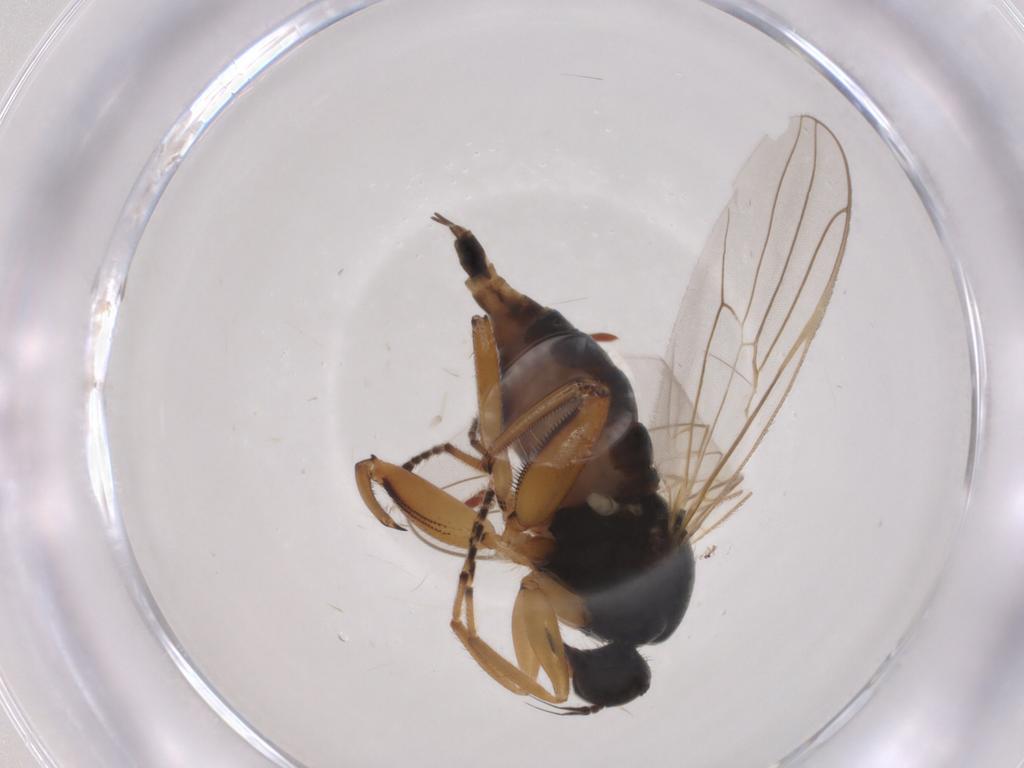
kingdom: Animalia
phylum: Arthropoda
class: Insecta
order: Diptera
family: Hybotidae
